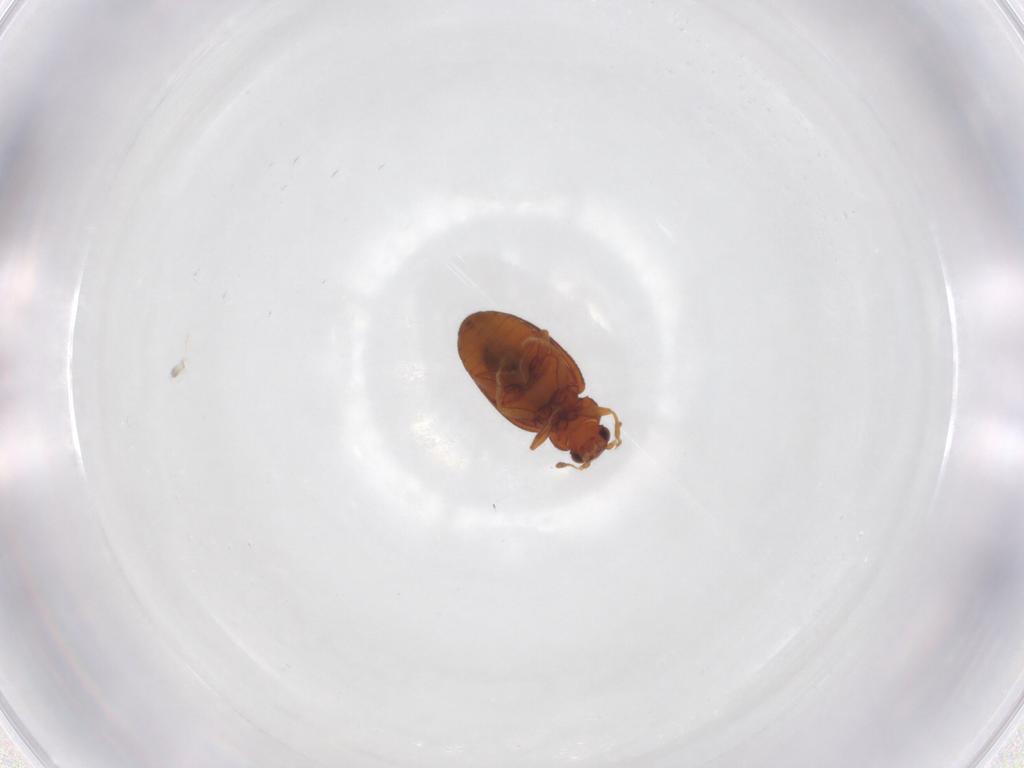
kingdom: Animalia
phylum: Arthropoda
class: Insecta
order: Coleoptera
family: Latridiidae
